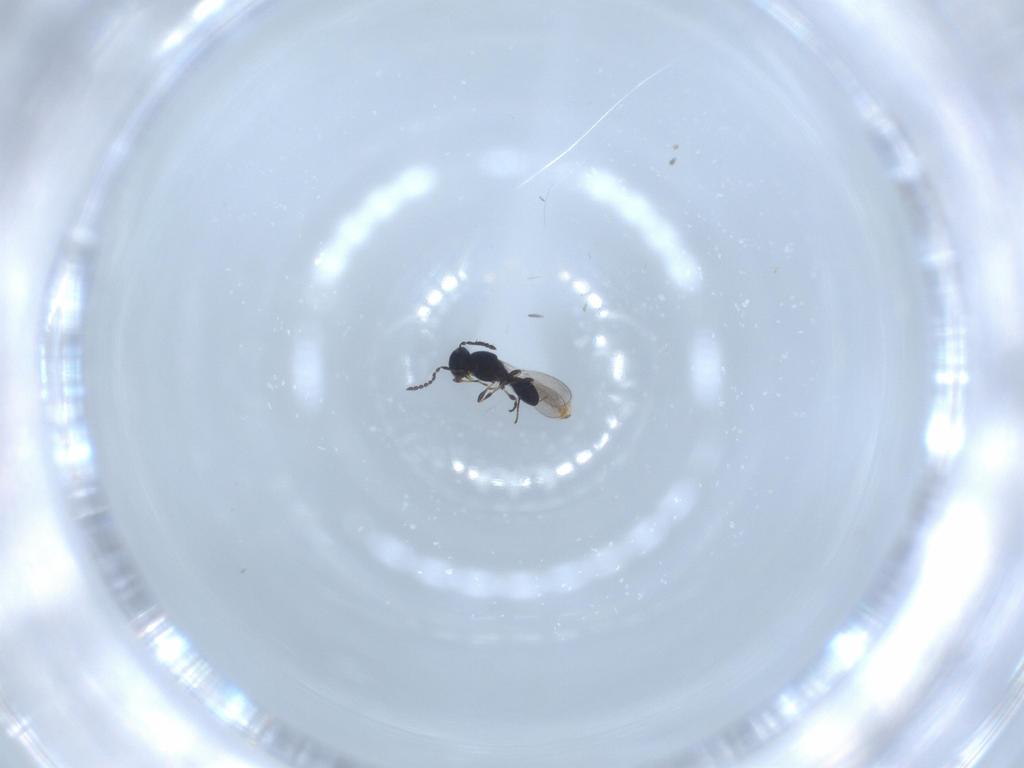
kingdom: Animalia
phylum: Arthropoda
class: Insecta
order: Hymenoptera
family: Platygastridae
